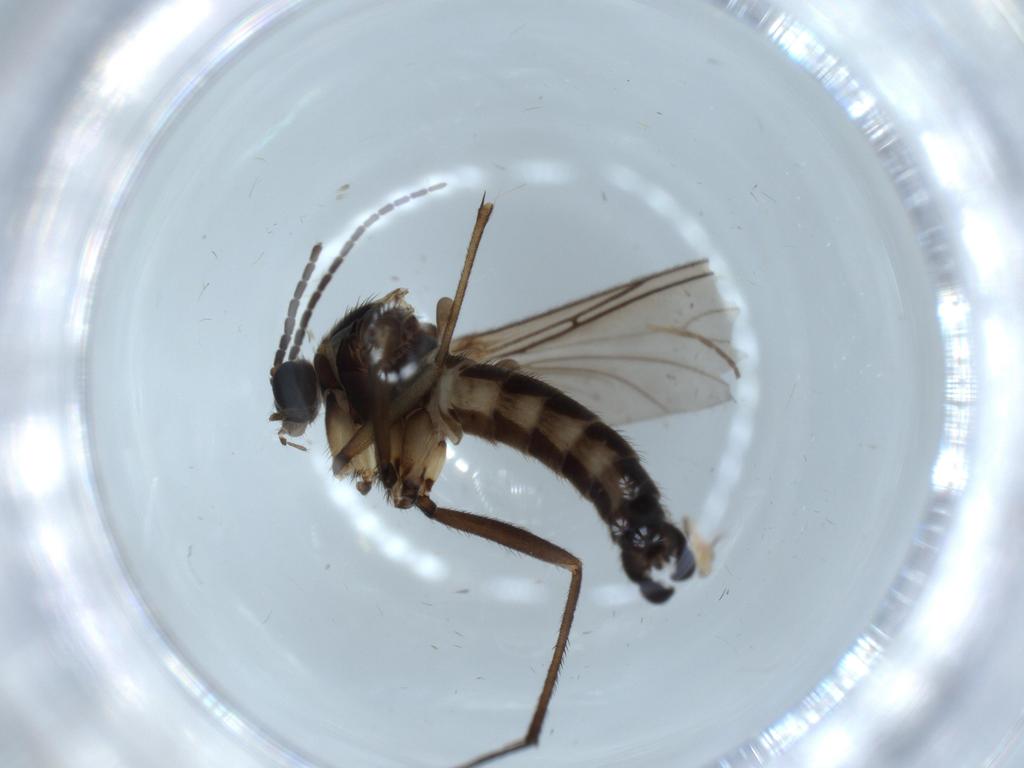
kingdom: Animalia
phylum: Arthropoda
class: Insecta
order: Diptera
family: Sciaridae
